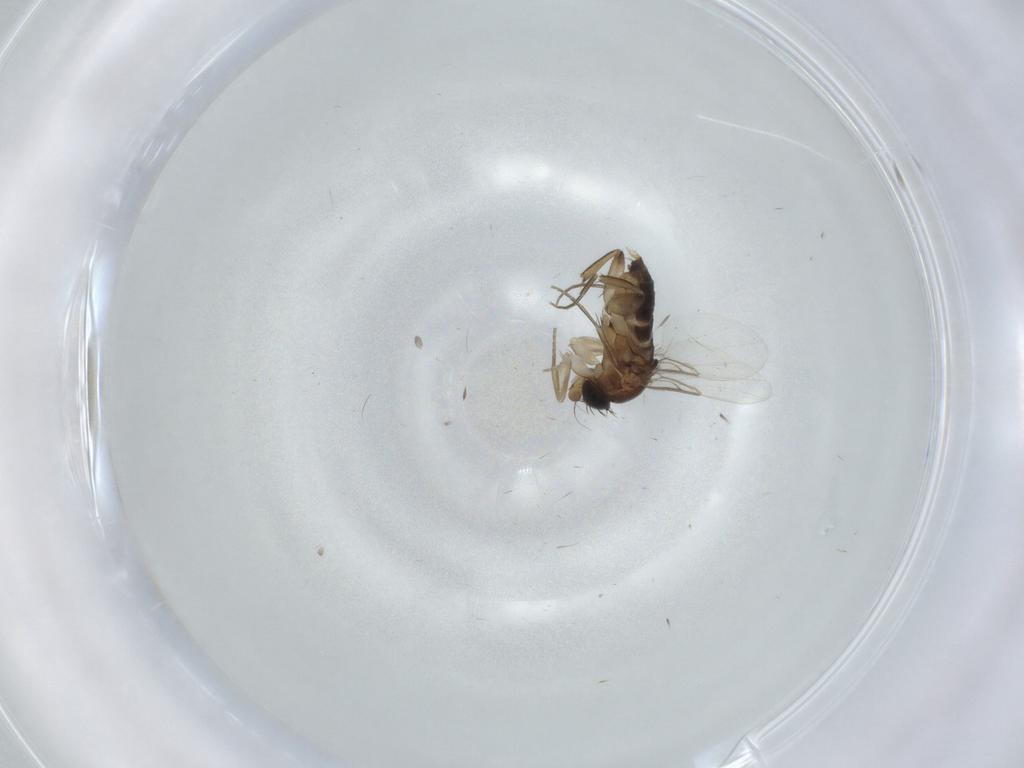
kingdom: Animalia
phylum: Arthropoda
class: Insecta
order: Diptera
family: Phoridae
